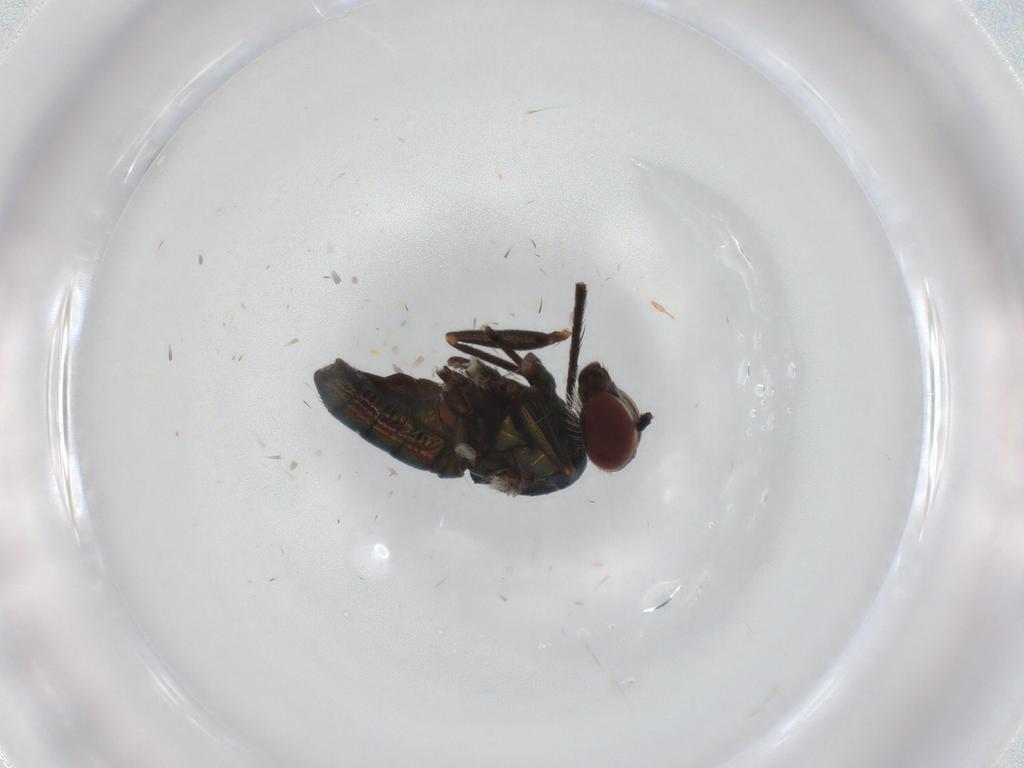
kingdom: Animalia
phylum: Arthropoda
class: Insecta
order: Diptera
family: Dolichopodidae
